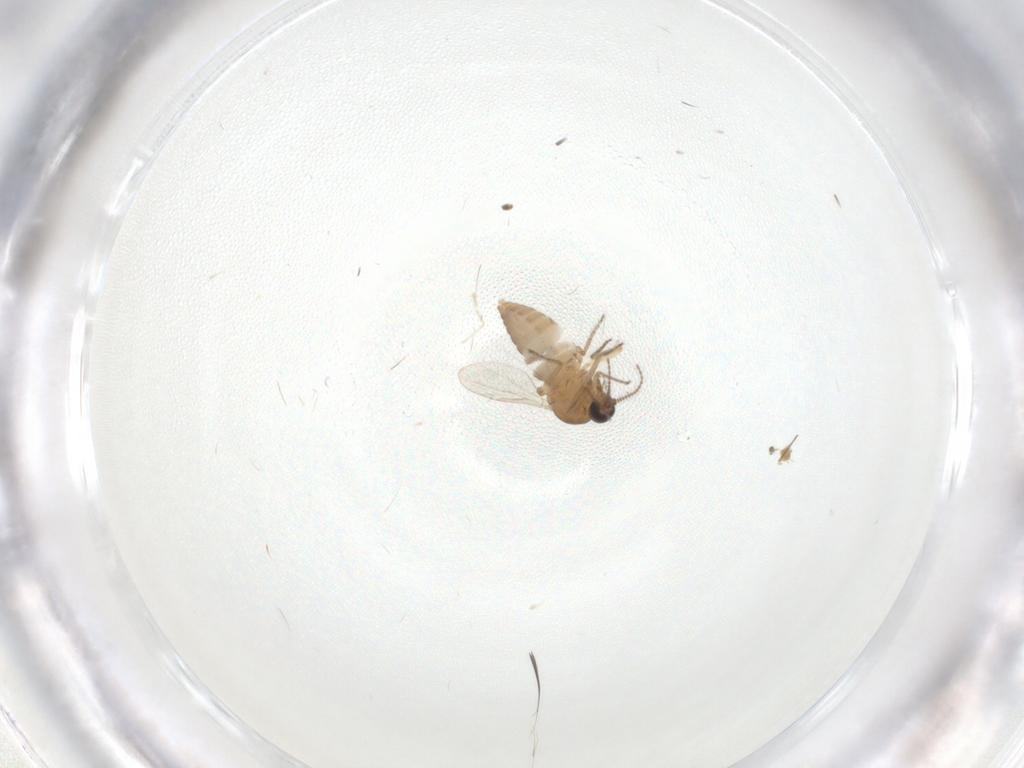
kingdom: Animalia
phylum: Arthropoda
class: Insecta
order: Diptera
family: Ceratopogonidae
